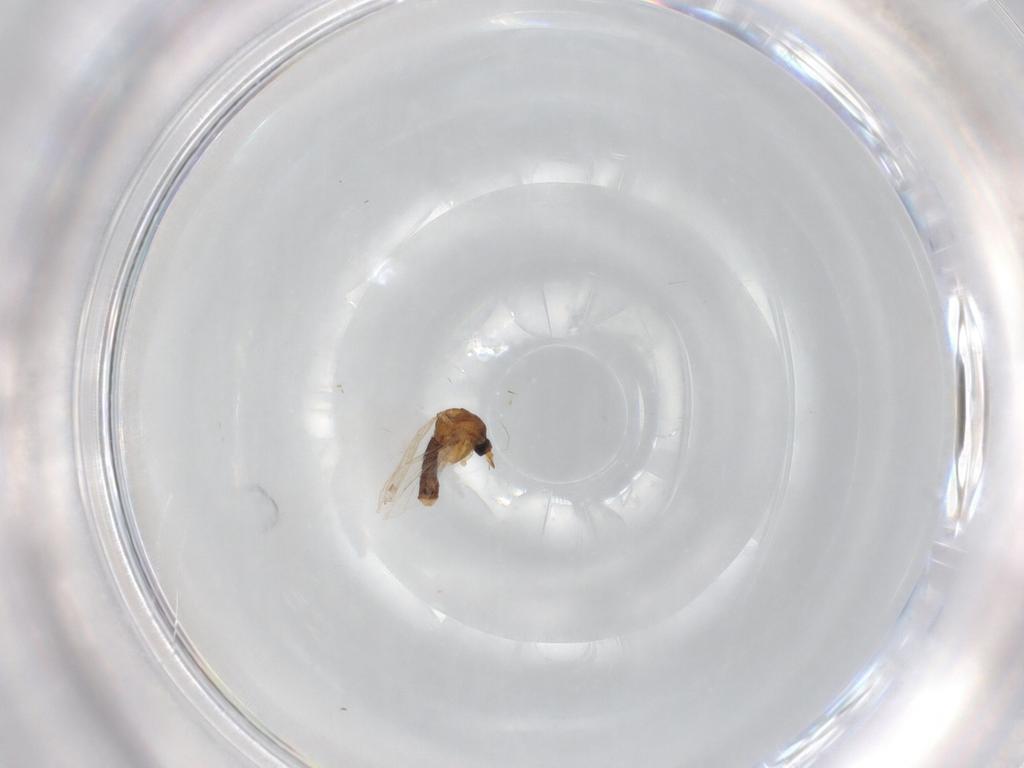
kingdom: Animalia
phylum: Arthropoda
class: Insecta
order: Diptera
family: Ceratopogonidae
